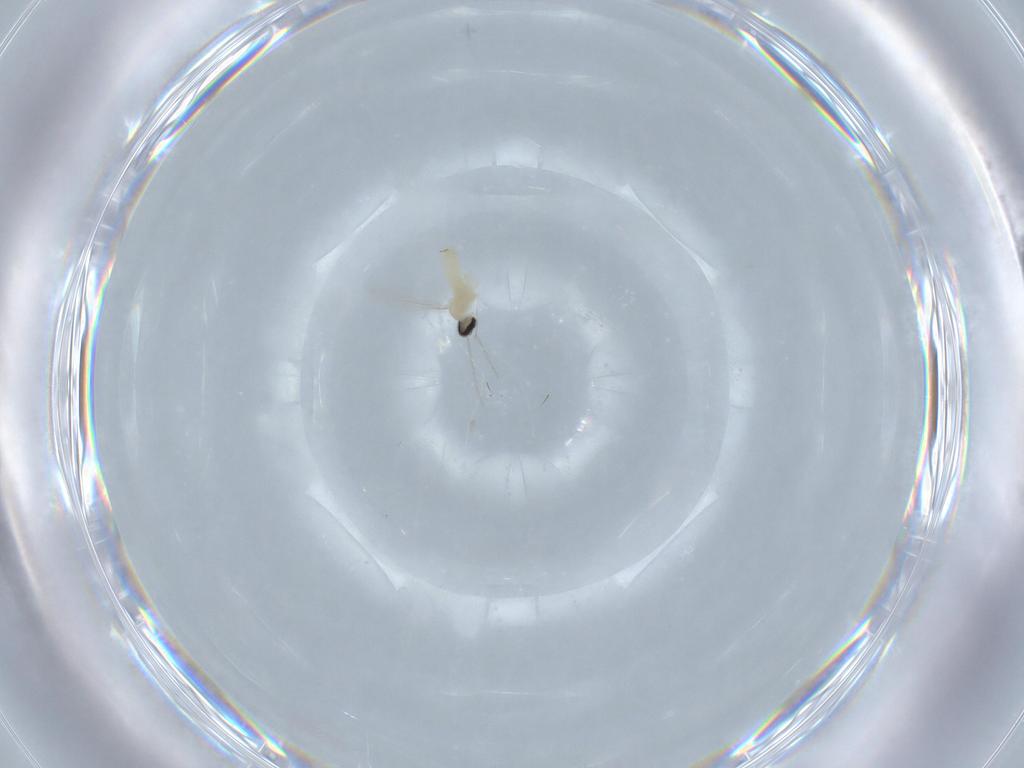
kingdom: Animalia
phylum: Arthropoda
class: Insecta
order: Diptera
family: Cecidomyiidae
